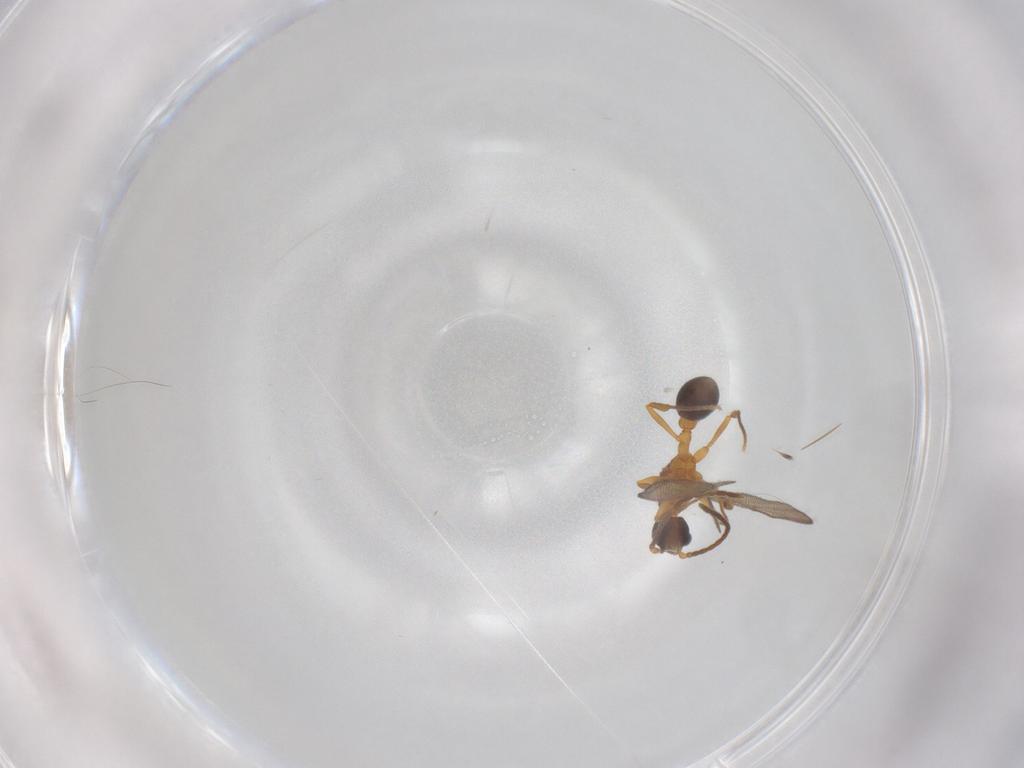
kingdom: Animalia
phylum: Arthropoda
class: Insecta
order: Hymenoptera
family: Formicidae
